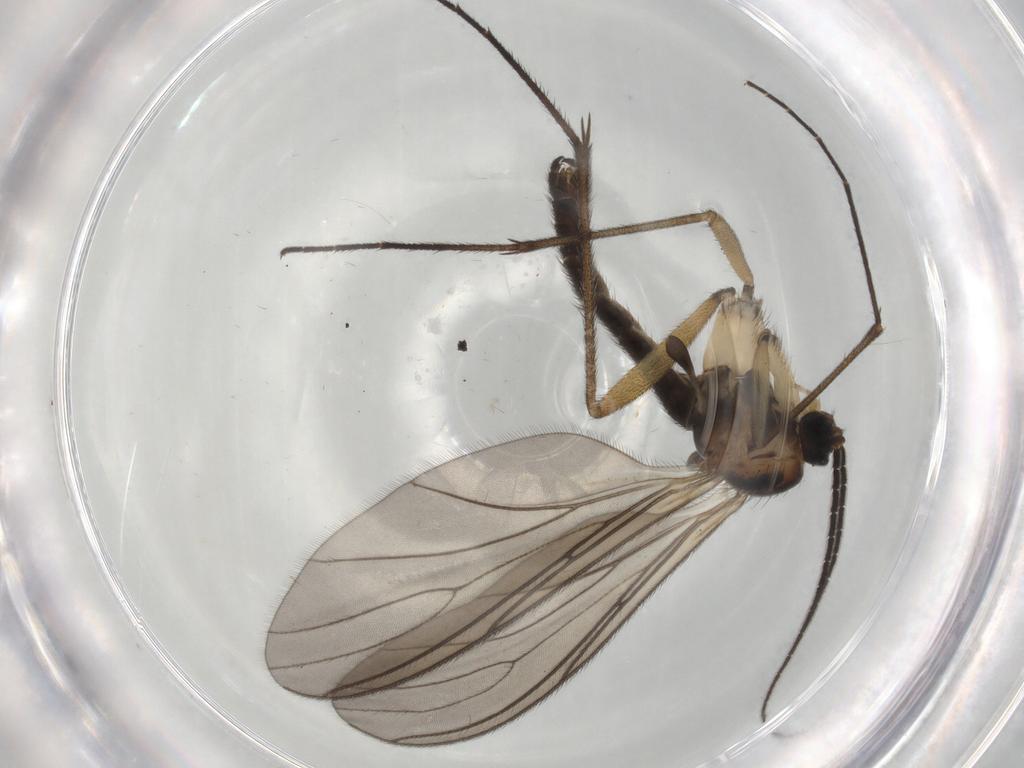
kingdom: Animalia
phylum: Arthropoda
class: Insecta
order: Diptera
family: Sciaridae
